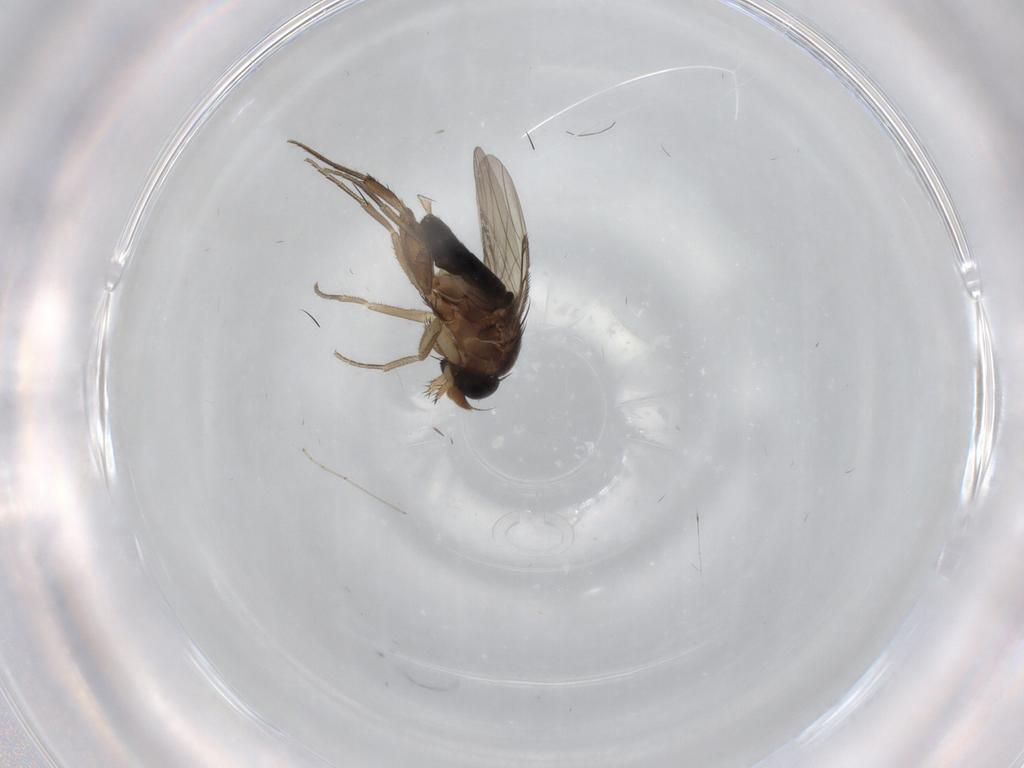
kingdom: Animalia
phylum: Arthropoda
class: Insecta
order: Diptera
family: Phoridae
